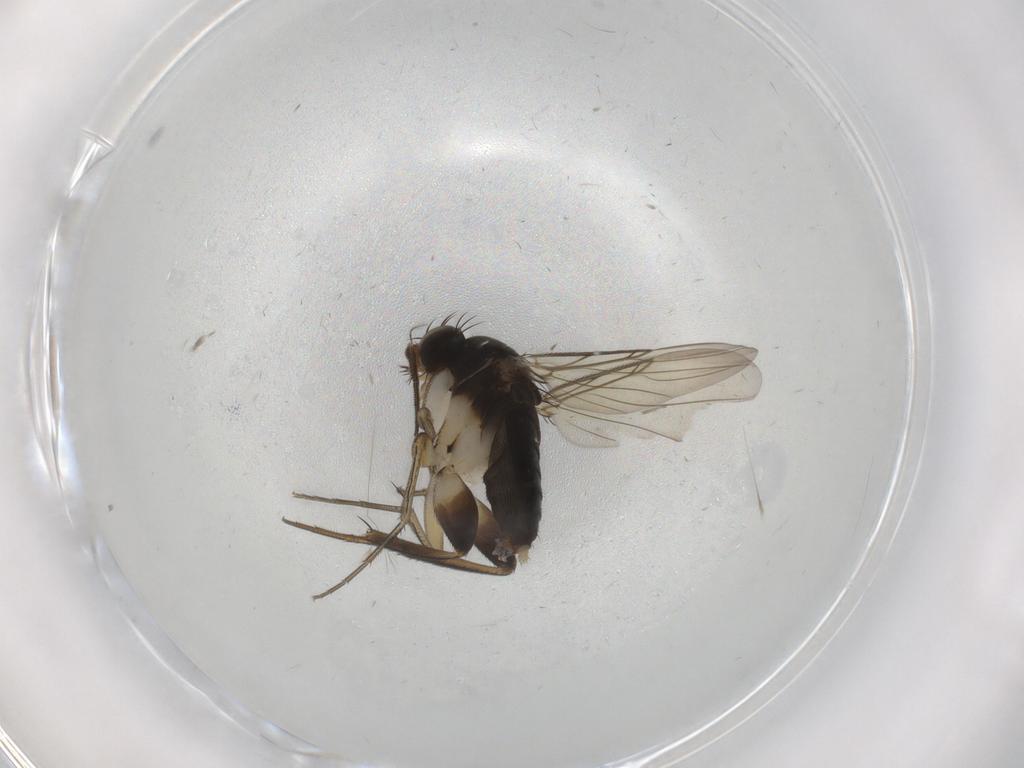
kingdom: Animalia
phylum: Arthropoda
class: Insecta
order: Diptera
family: Phoridae
